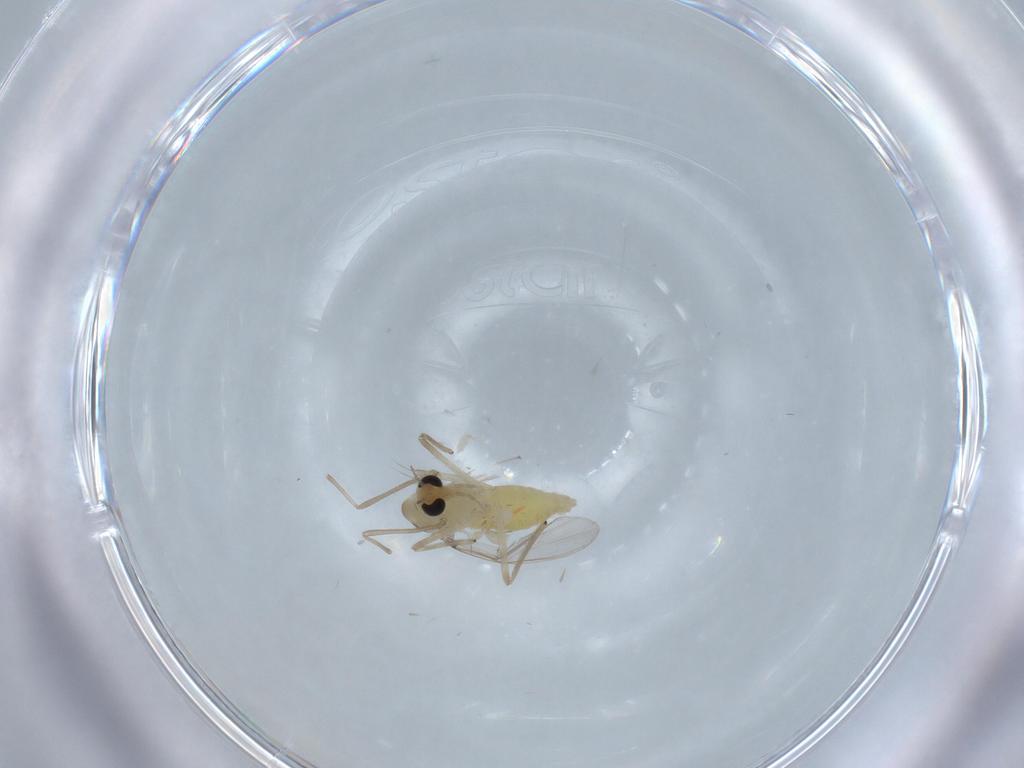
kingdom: Animalia
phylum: Arthropoda
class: Insecta
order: Diptera
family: Chironomidae
